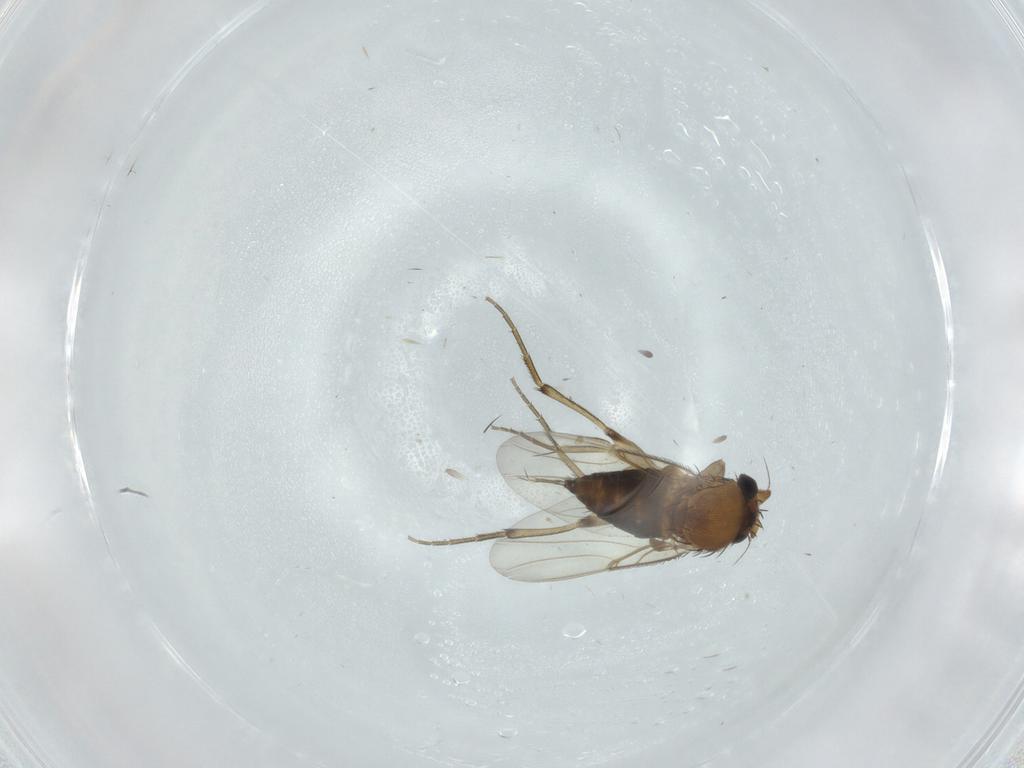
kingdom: Animalia
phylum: Arthropoda
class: Insecta
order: Diptera
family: Cecidomyiidae
